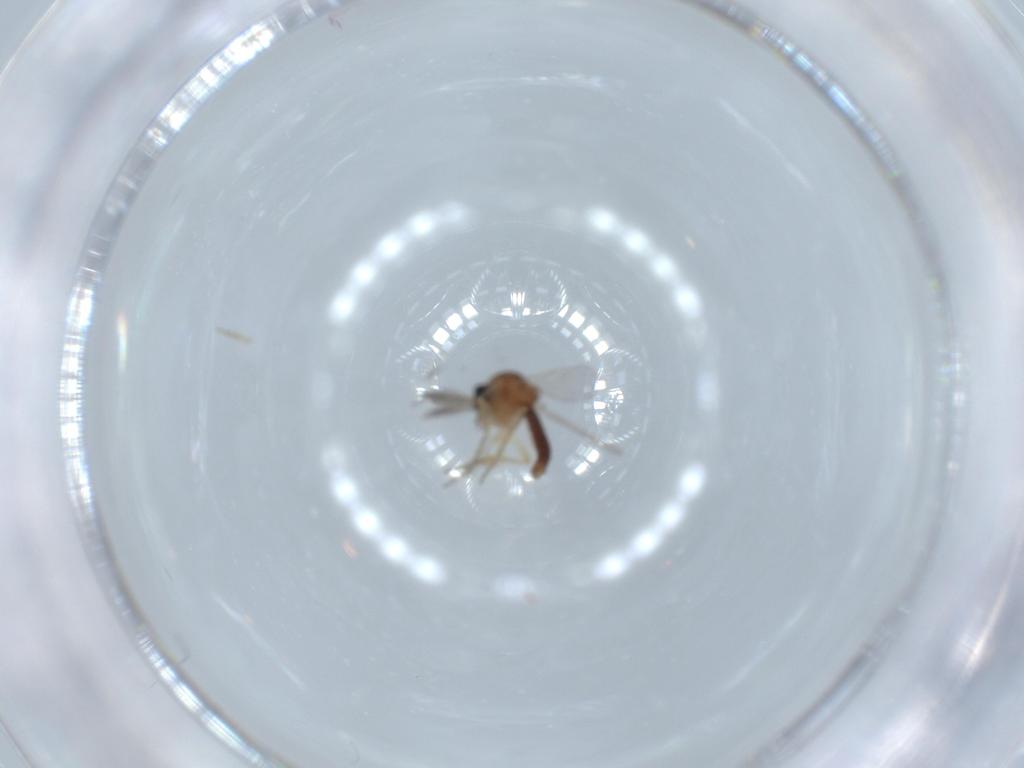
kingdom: Animalia
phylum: Arthropoda
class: Insecta
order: Diptera
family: Ceratopogonidae
